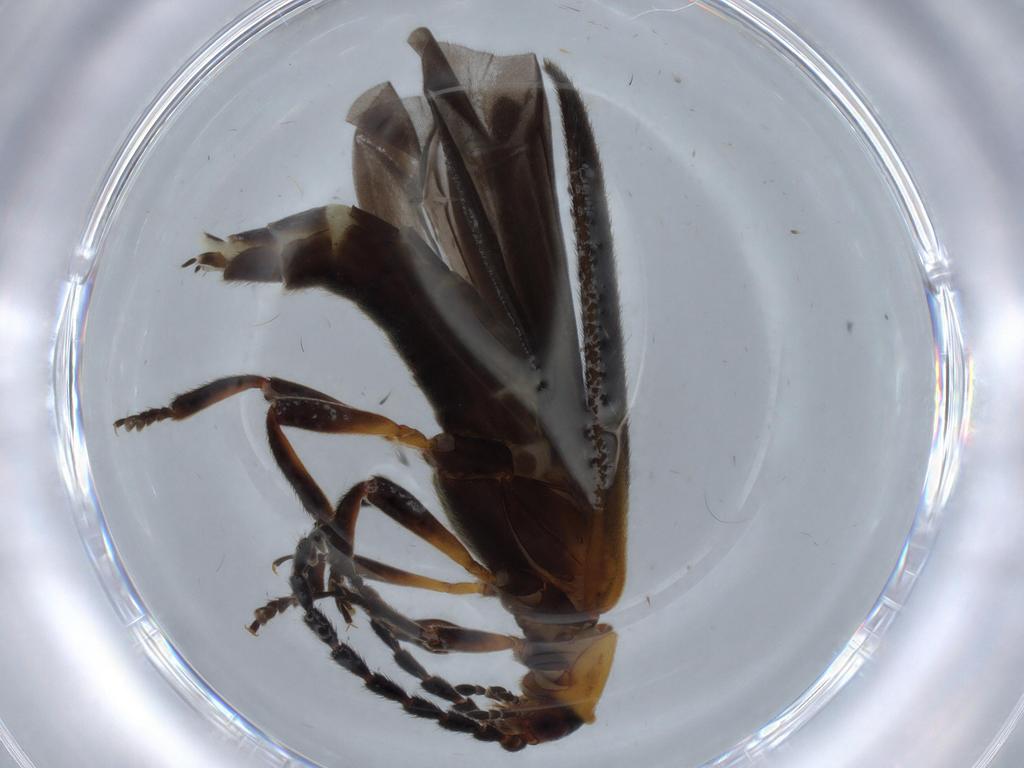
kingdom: Animalia
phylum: Arthropoda
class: Insecta
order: Coleoptera
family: Lycidae
